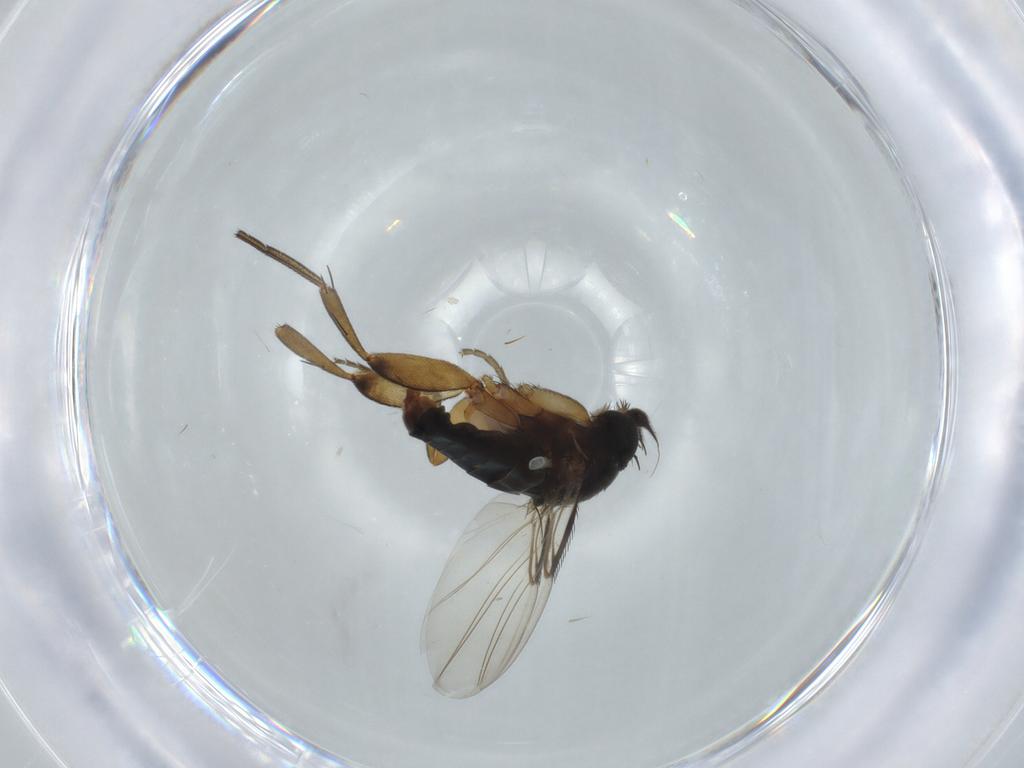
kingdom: Animalia
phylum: Arthropoda
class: Insecta
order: Diptera
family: Phoridae
